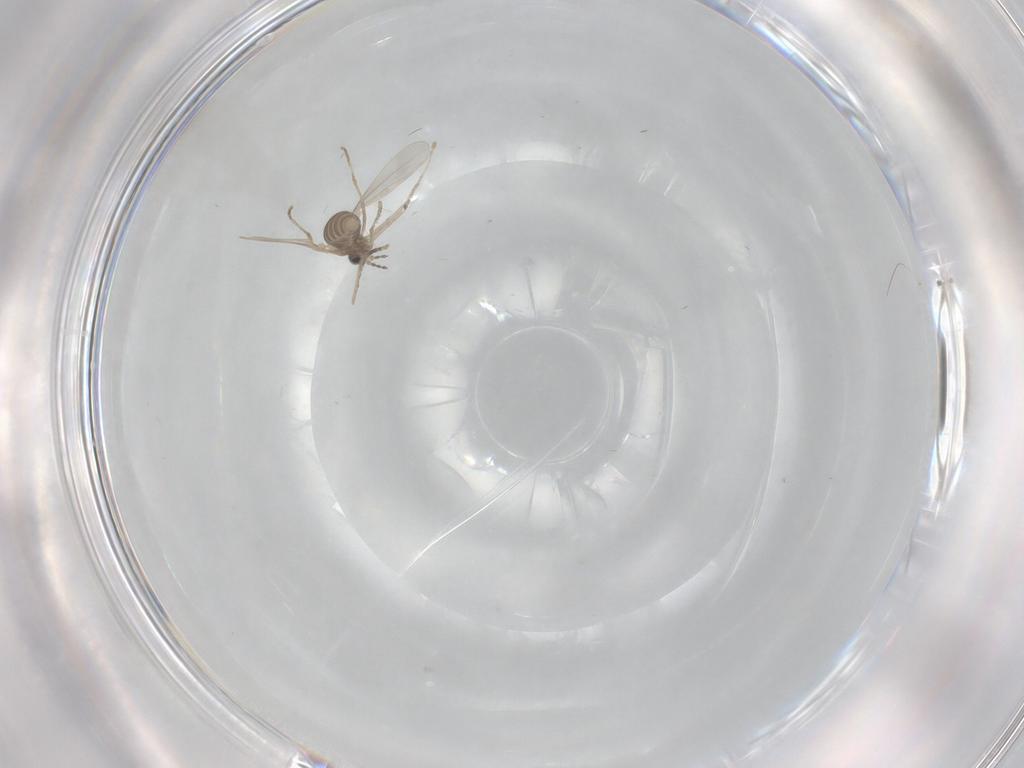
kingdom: Animalia
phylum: Arthropoda
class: Insecta
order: Diptera
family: Cecidomyiidae
